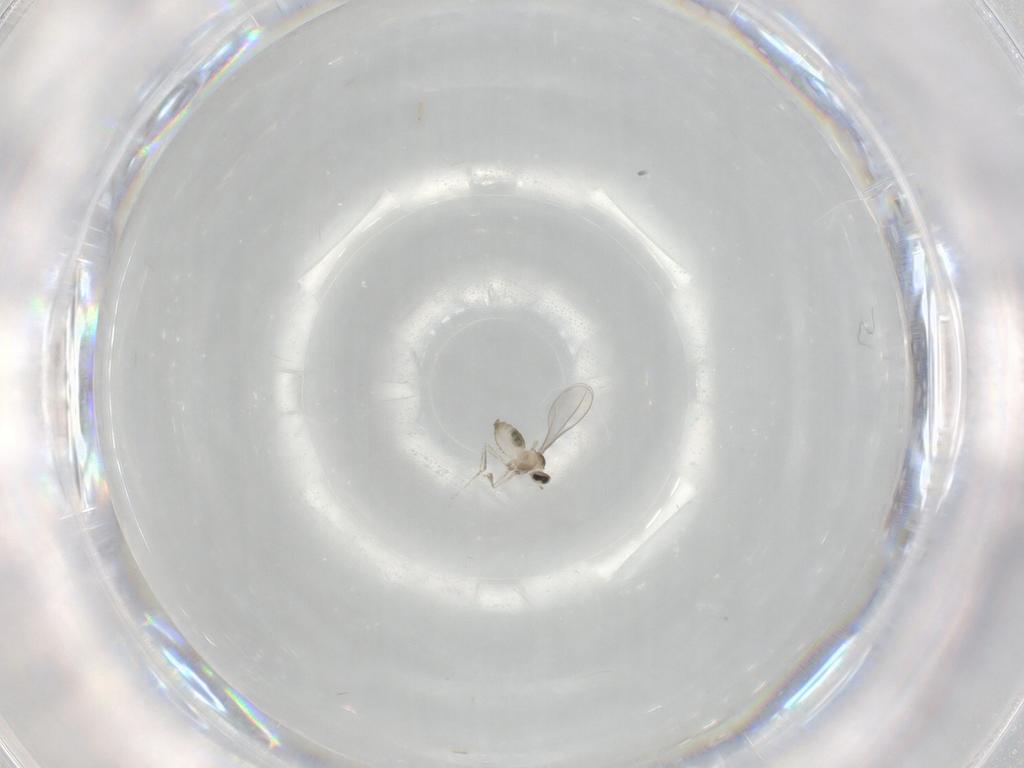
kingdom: Animalia
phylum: Arthropoda
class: Insecta
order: Diptera
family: Cecidomyiidae
